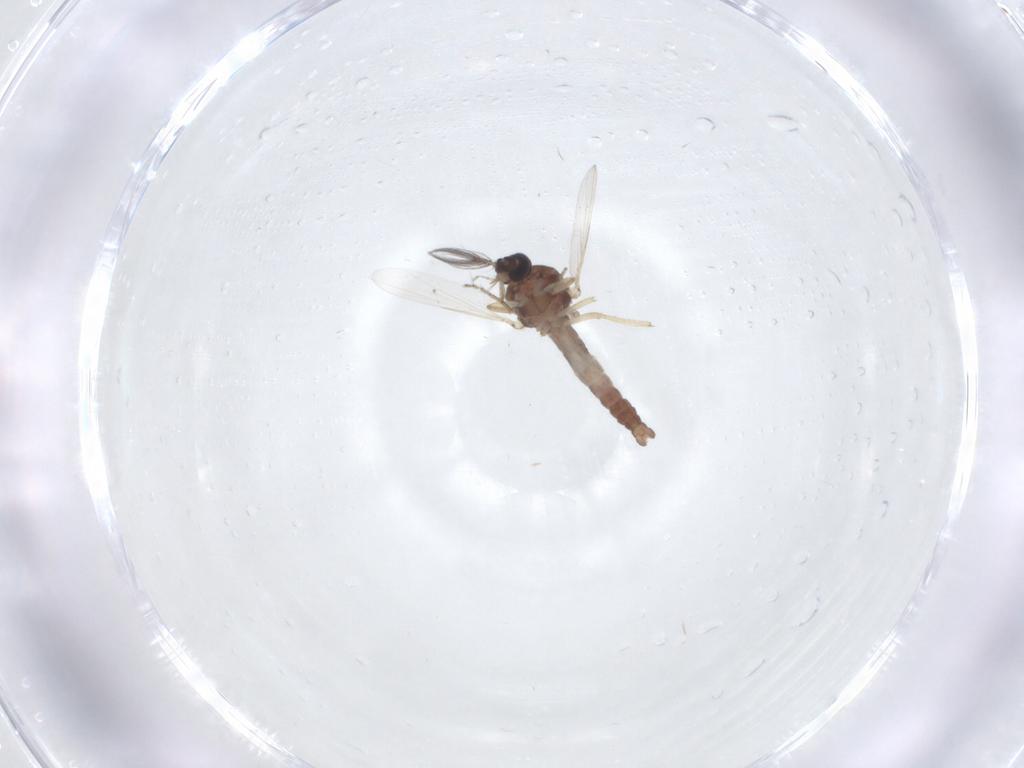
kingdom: Animalia
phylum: Arthropoda
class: Insecta
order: Diptera
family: Ceratopogonidae
